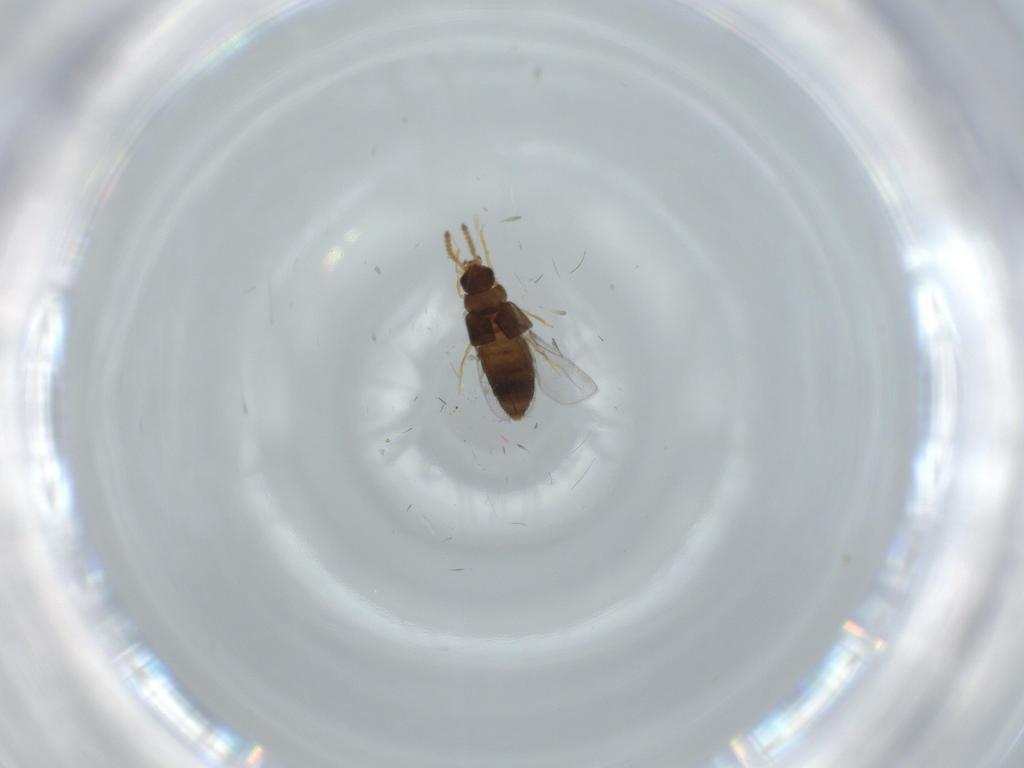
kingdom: Animalia
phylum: Arthropoda
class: Insecta
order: Coleoptera
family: Staphylinidae
